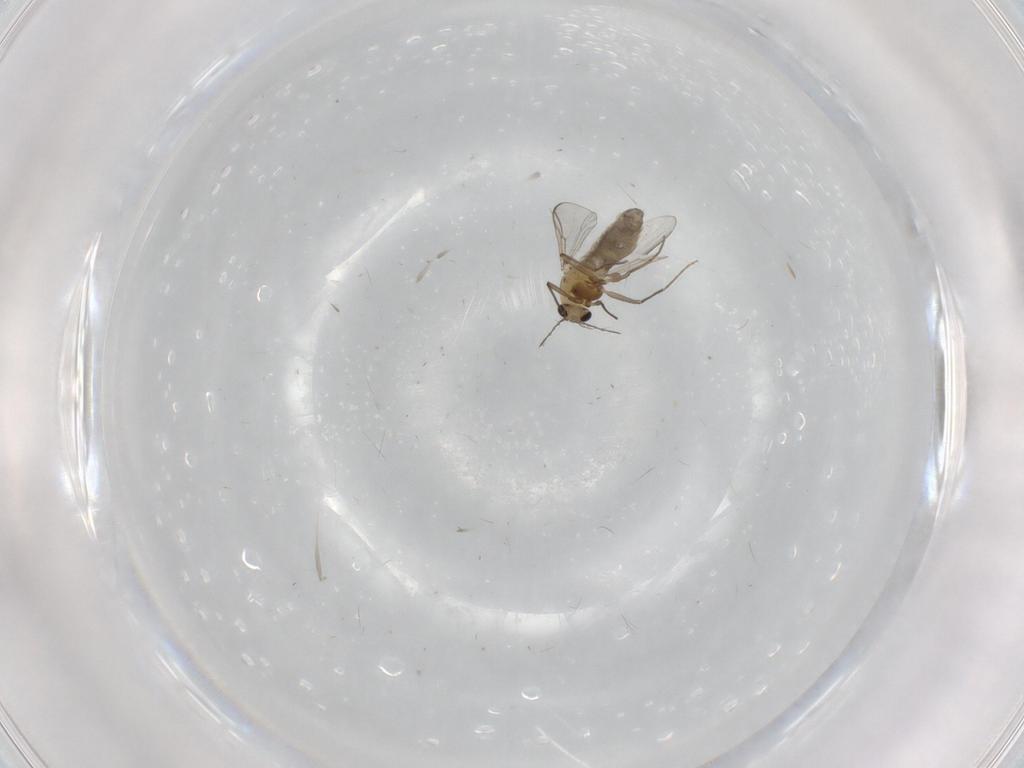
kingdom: Animalia
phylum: Arthropoda
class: Insecta
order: Diptera
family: Chironomidae
